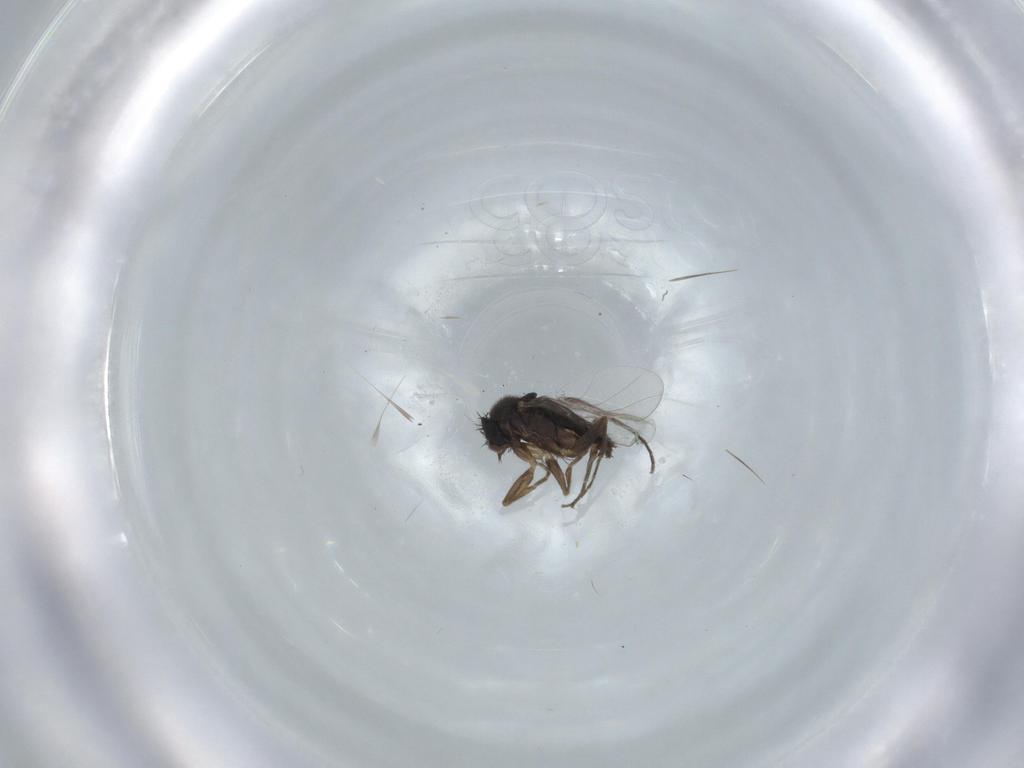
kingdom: Animalia
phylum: Arthropoda
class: Insecta
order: Diptera
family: Phoridae
